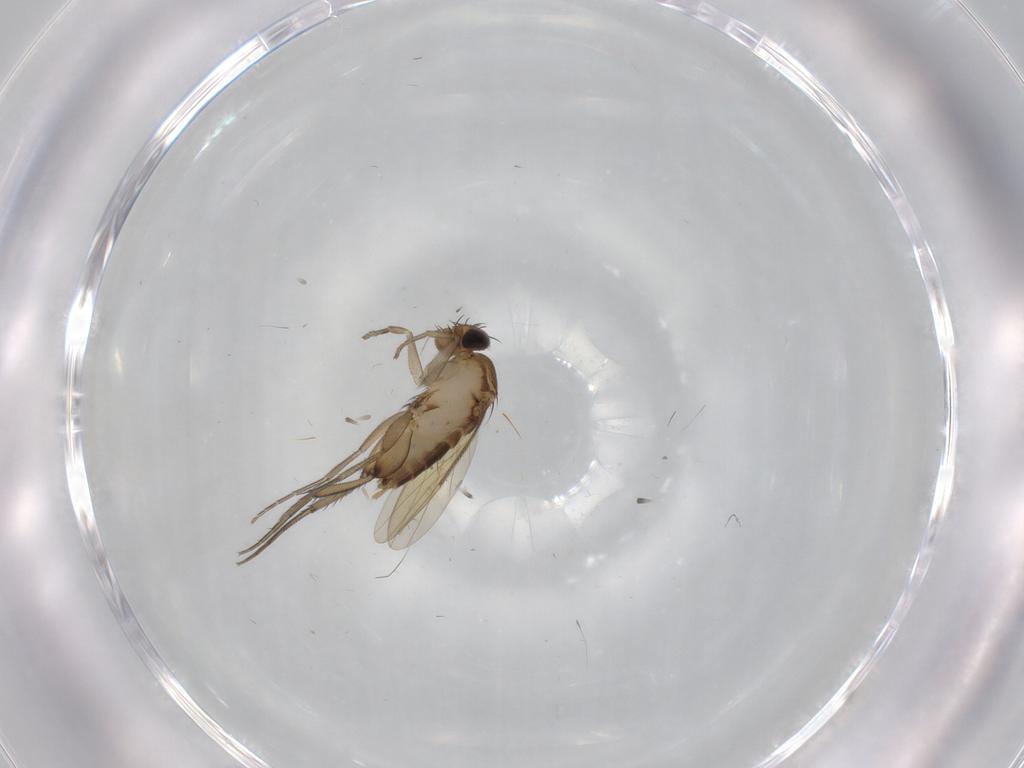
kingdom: Animalia
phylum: Arthropoda
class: Insecta
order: Diptera
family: Phoridae
